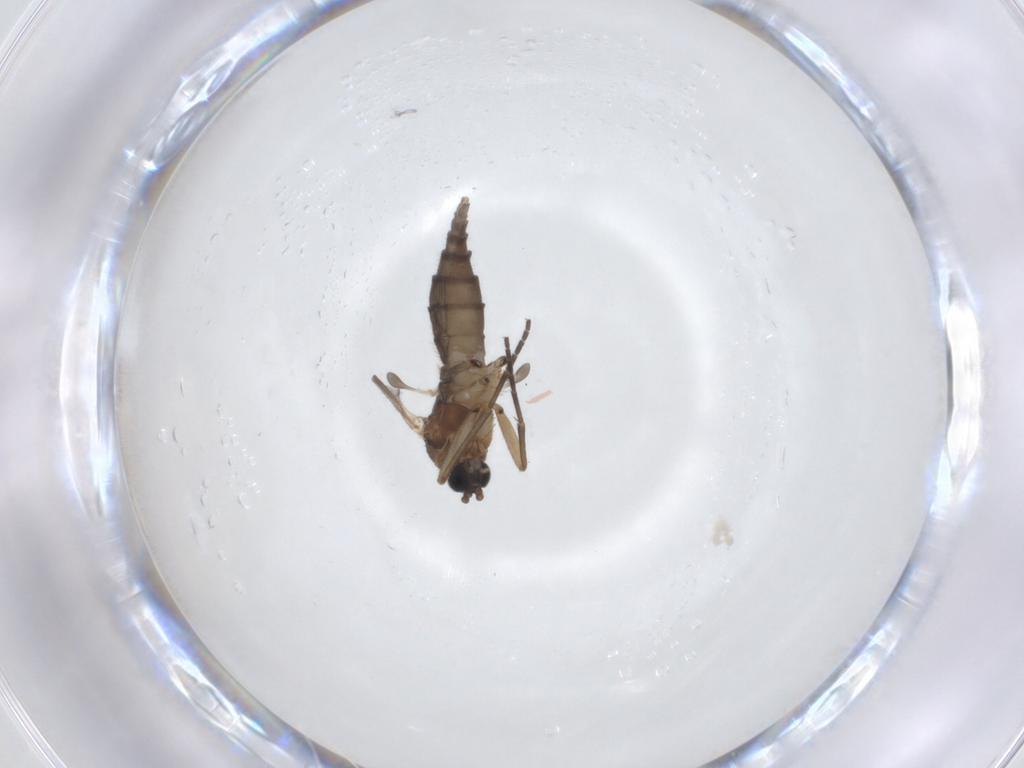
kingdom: Animalia
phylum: Arthropoda
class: Insecta
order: Diptera
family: Sciaridae
